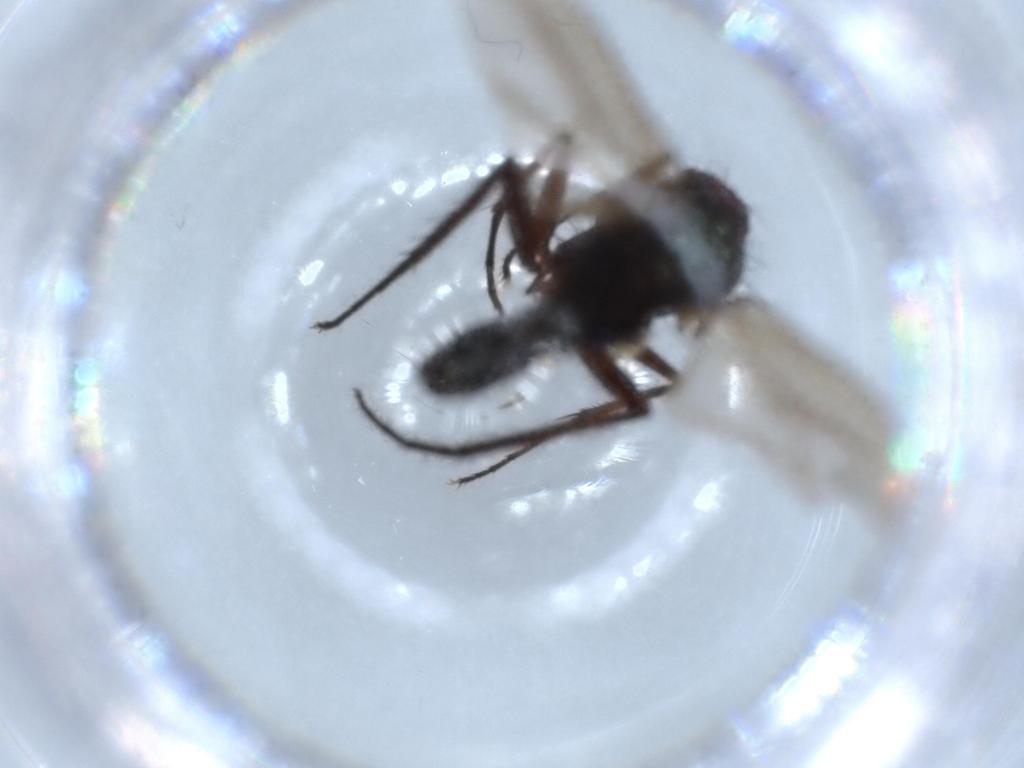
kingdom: Animalia
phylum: Arthropoda
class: Insecta
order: Diptera
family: Dolichopodidae
